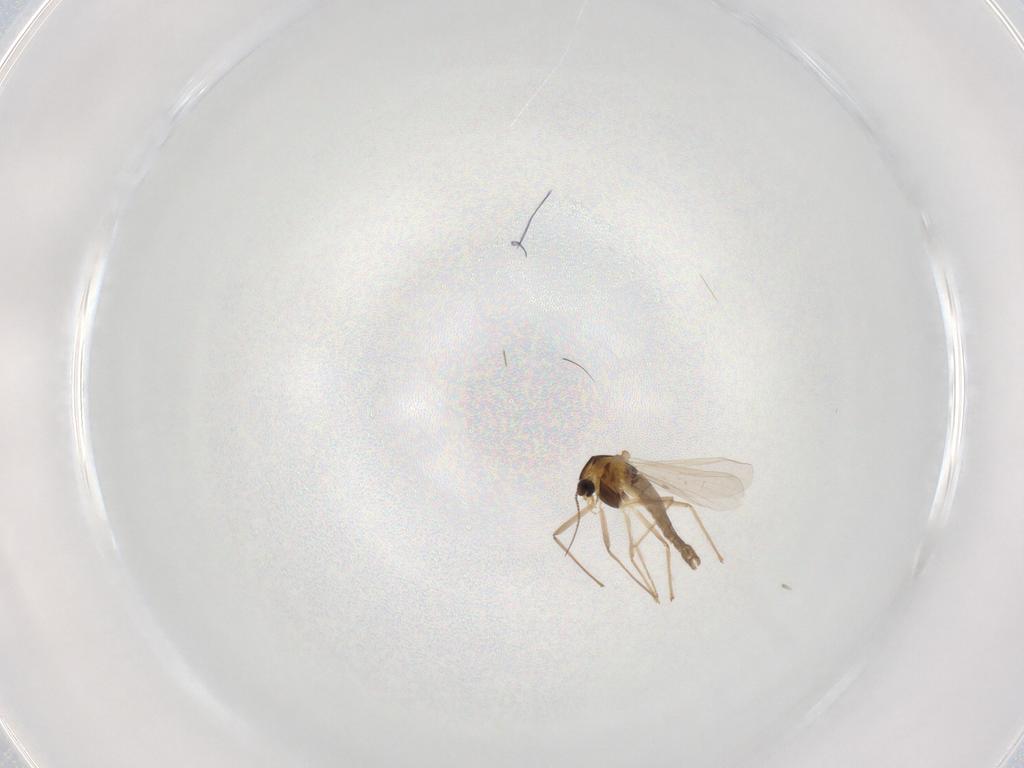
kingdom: Animalia
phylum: Arthropoda
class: Insecta
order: Diptera
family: Chironomidae
